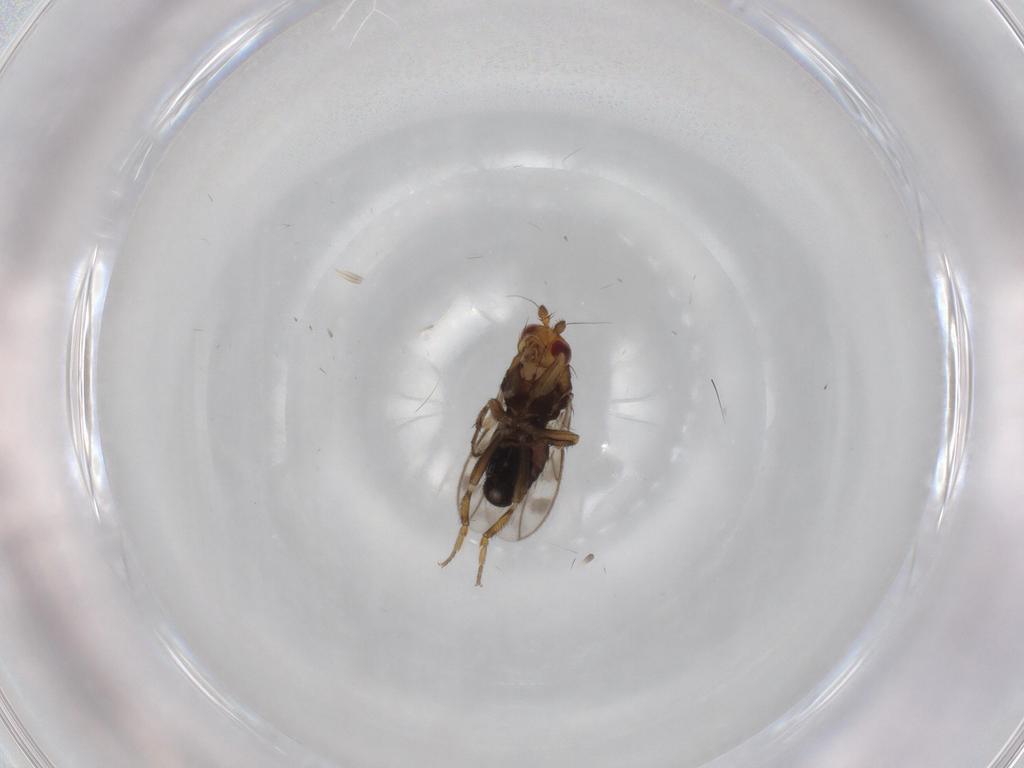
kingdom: Animalia
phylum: Arthropoda
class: Insecta
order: Diptera
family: Sphaeroceridae
